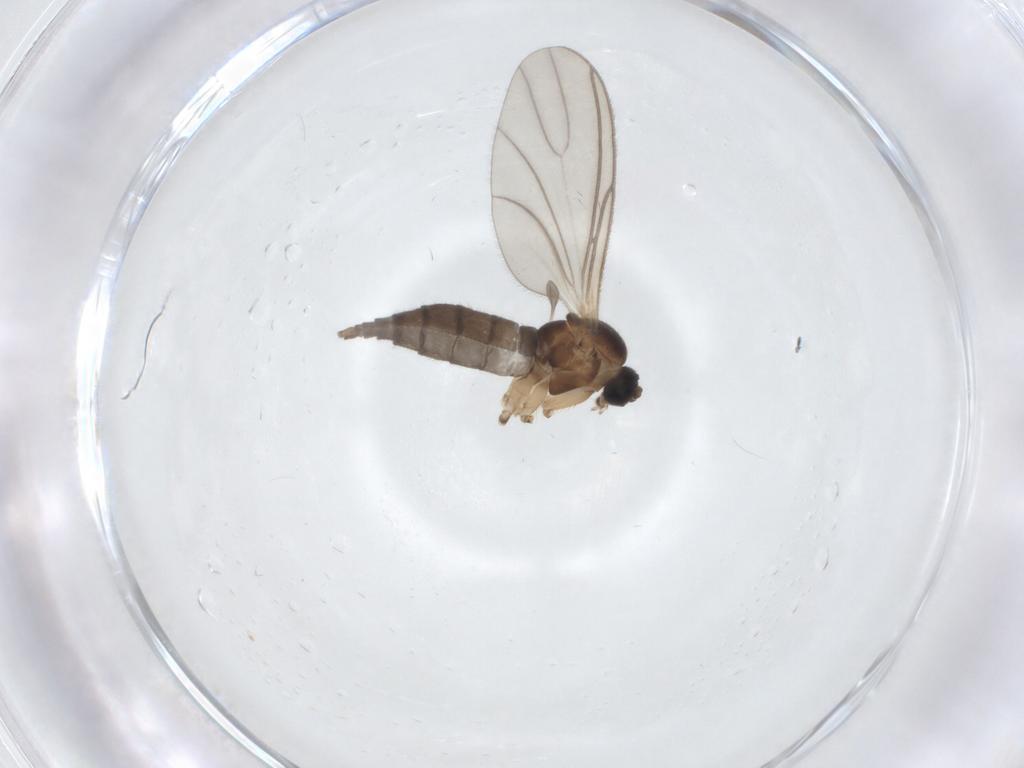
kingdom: Animalia
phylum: Arthropoda
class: Insecta
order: Diptera
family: Sciaridae
